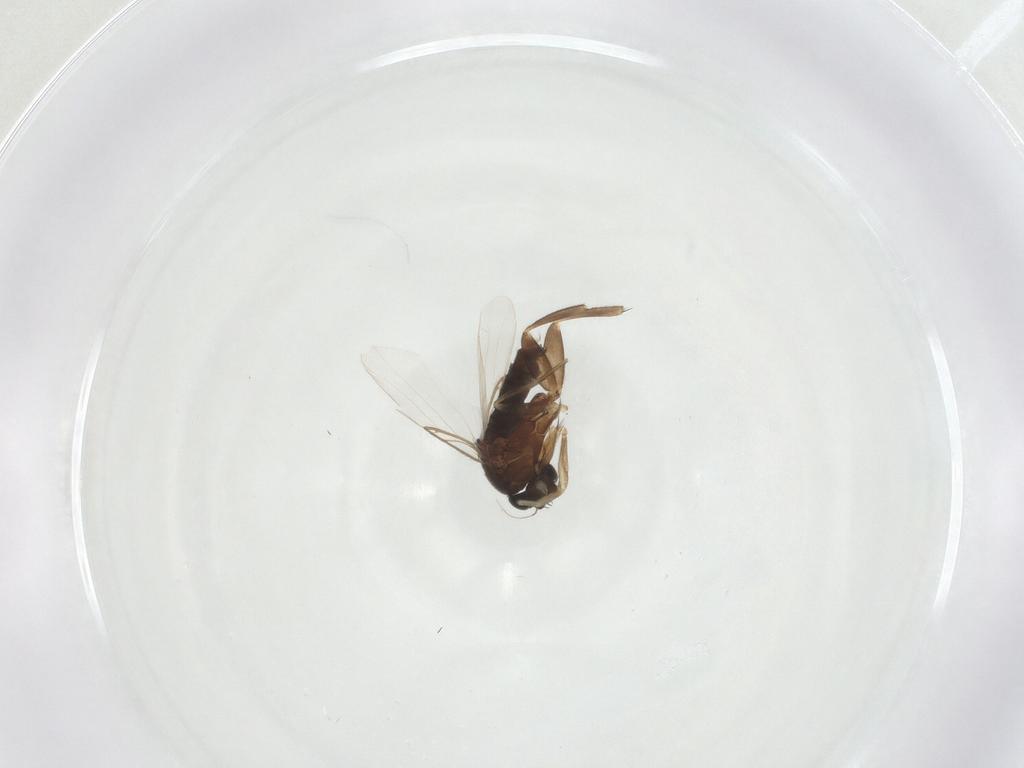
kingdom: Animalia
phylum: Arthropoda
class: Insecta
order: Diptera
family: Phoridae
